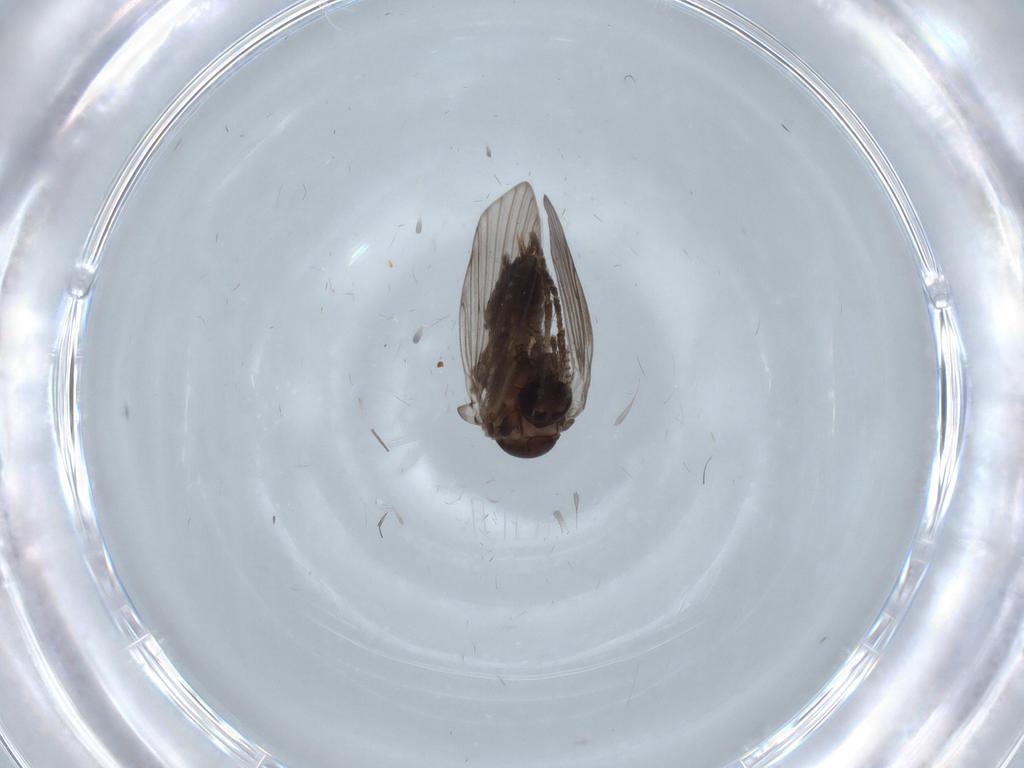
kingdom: Animalia
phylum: Arthropoda
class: Insecta
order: Diptera
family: Psychodidae
